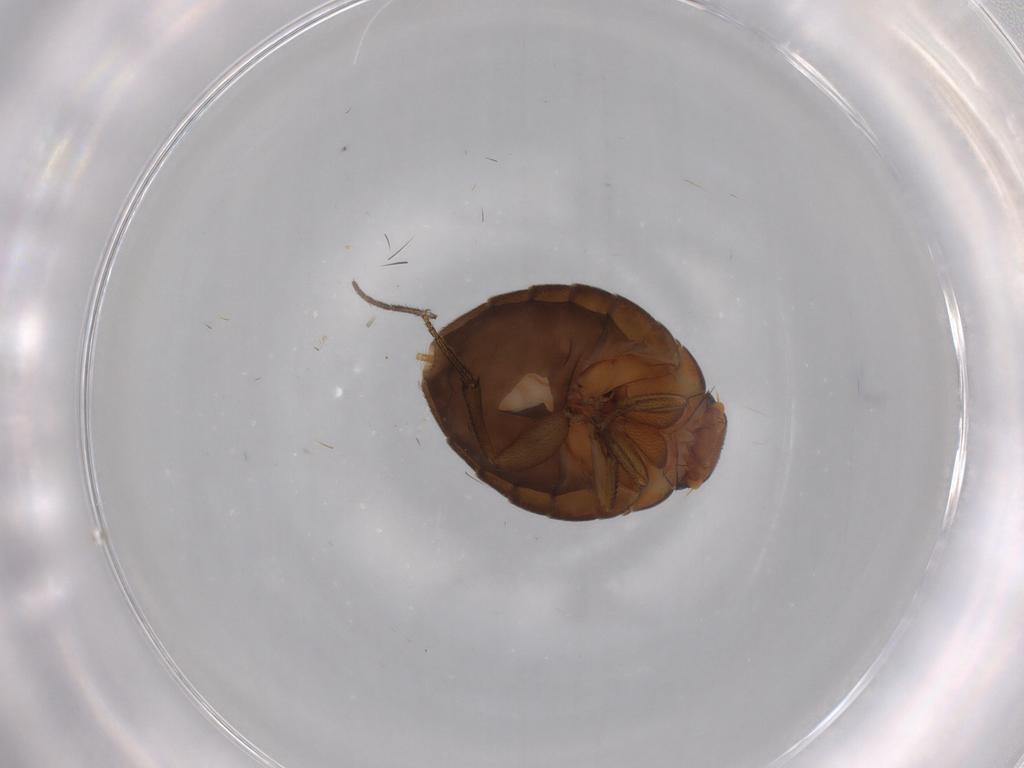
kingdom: Animalia
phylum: Arthropoda
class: Insecta
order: Diptera
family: Phoridae
